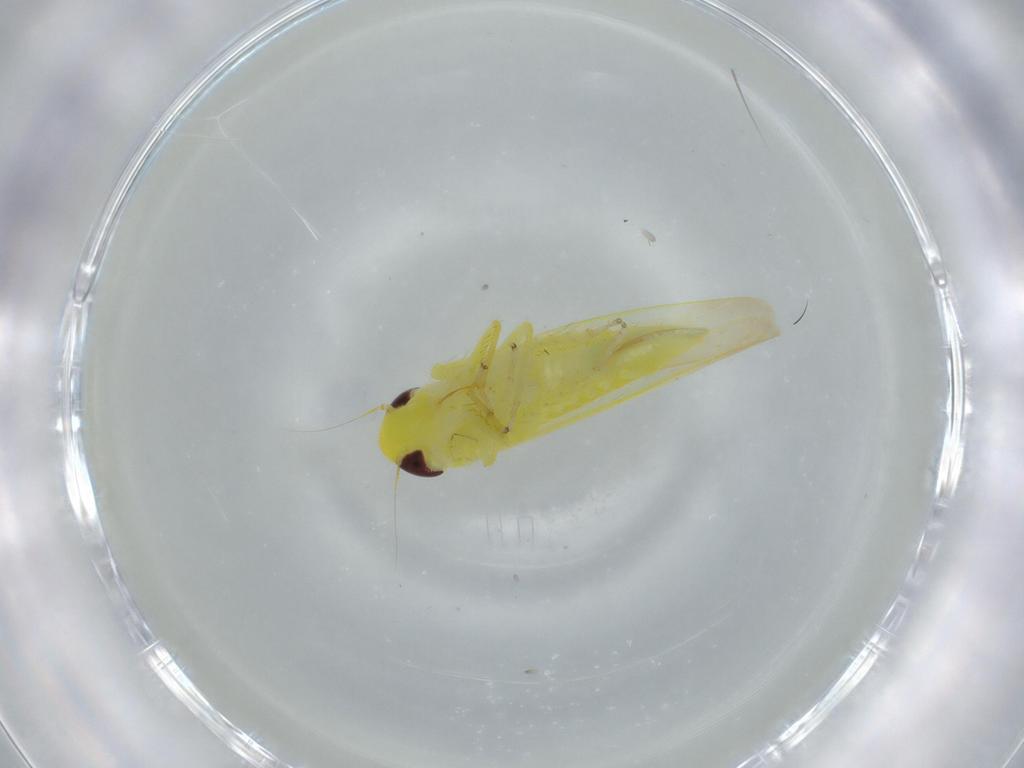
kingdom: Animalia
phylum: Arthropoda
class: Insecta
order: Hemiptera
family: Cicadellidae
